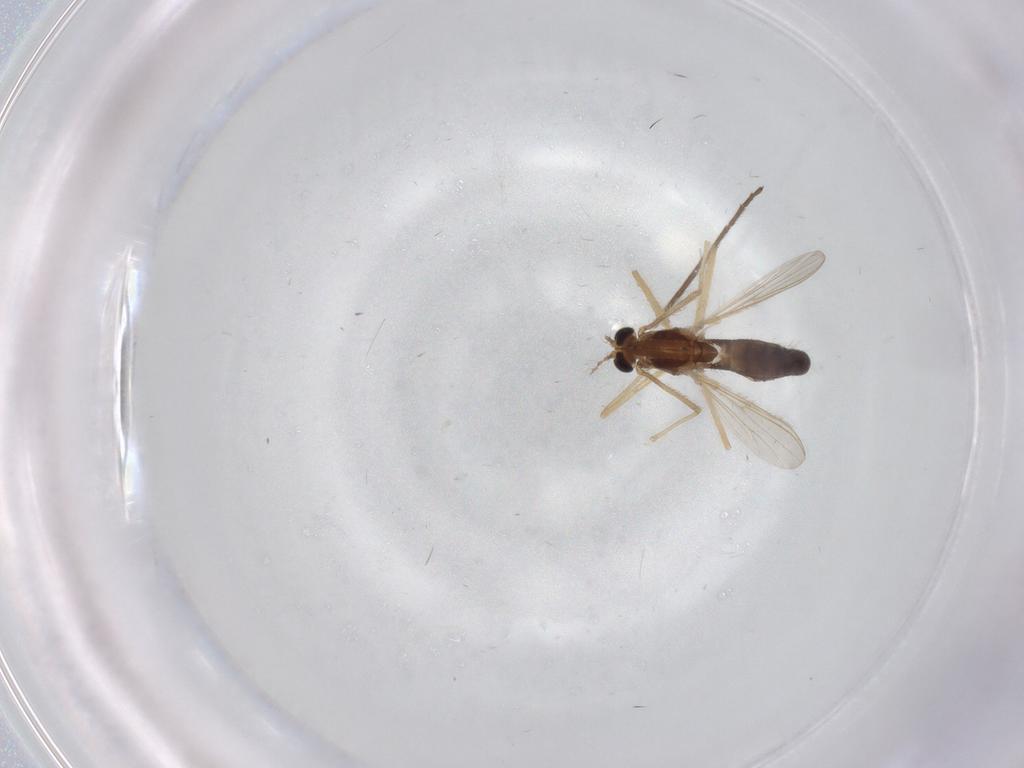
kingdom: Animalia
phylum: Arthropoda
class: Insecta
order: Diptera
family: Chironomidae
